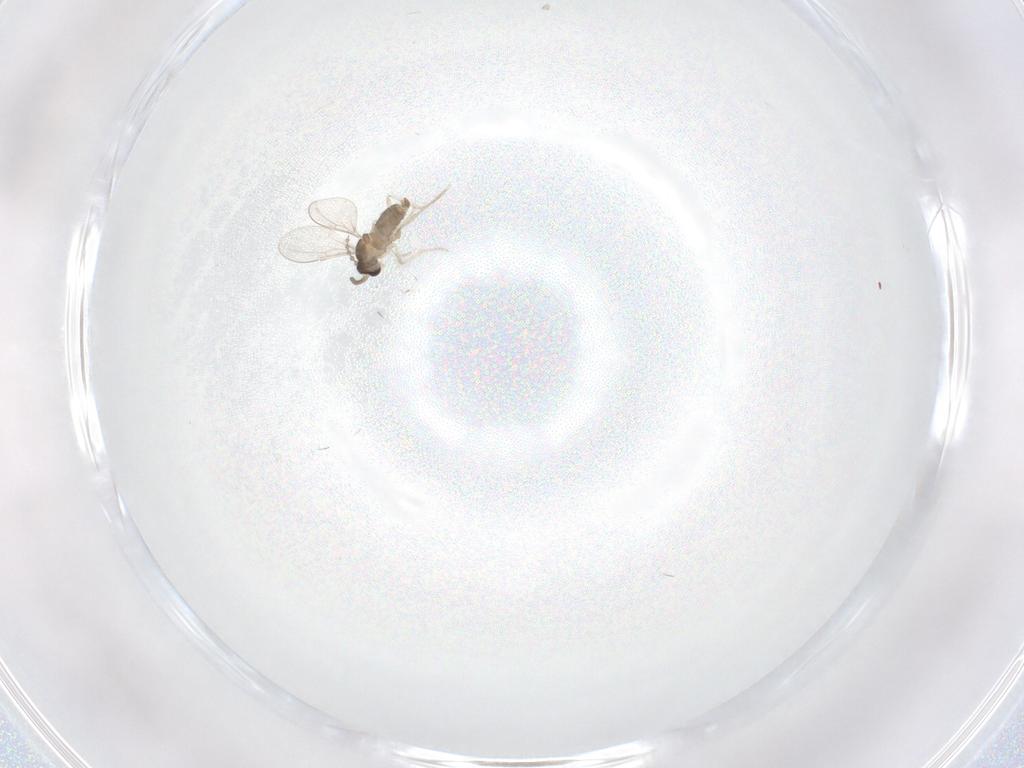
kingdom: Animalia
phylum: Arthropoda
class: Insecta
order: Diptera
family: Cecidomyiidae
